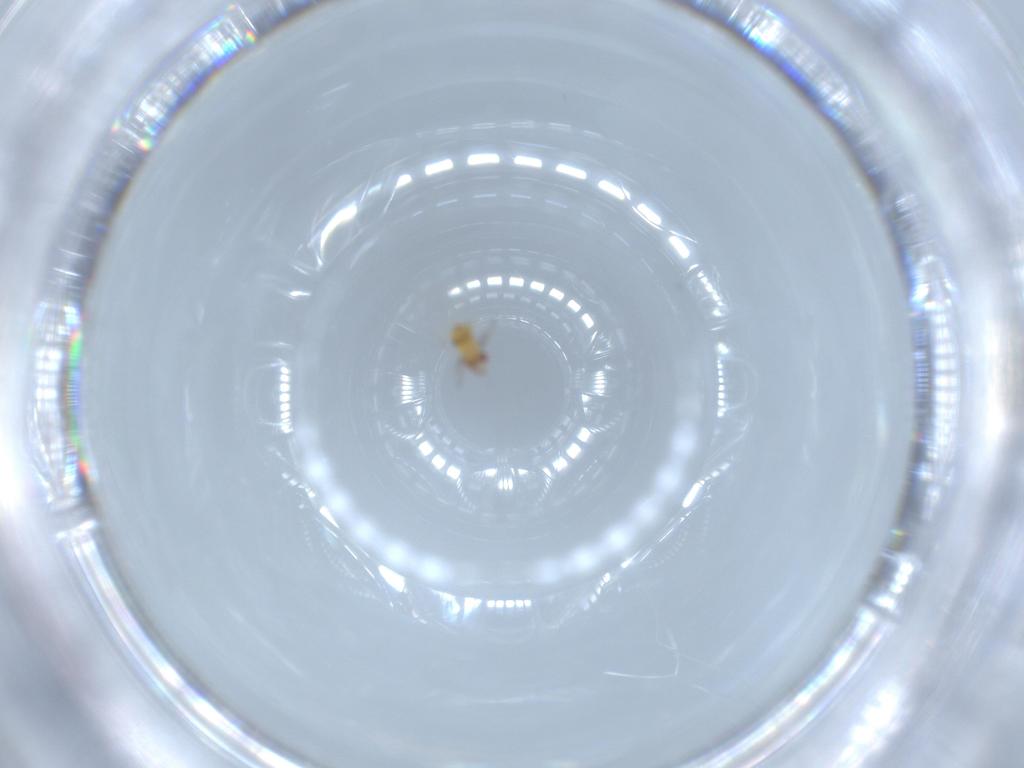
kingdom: Animalia
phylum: Arthropoda
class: Insecta
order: Hymenoptera
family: Trichogrammatidae
